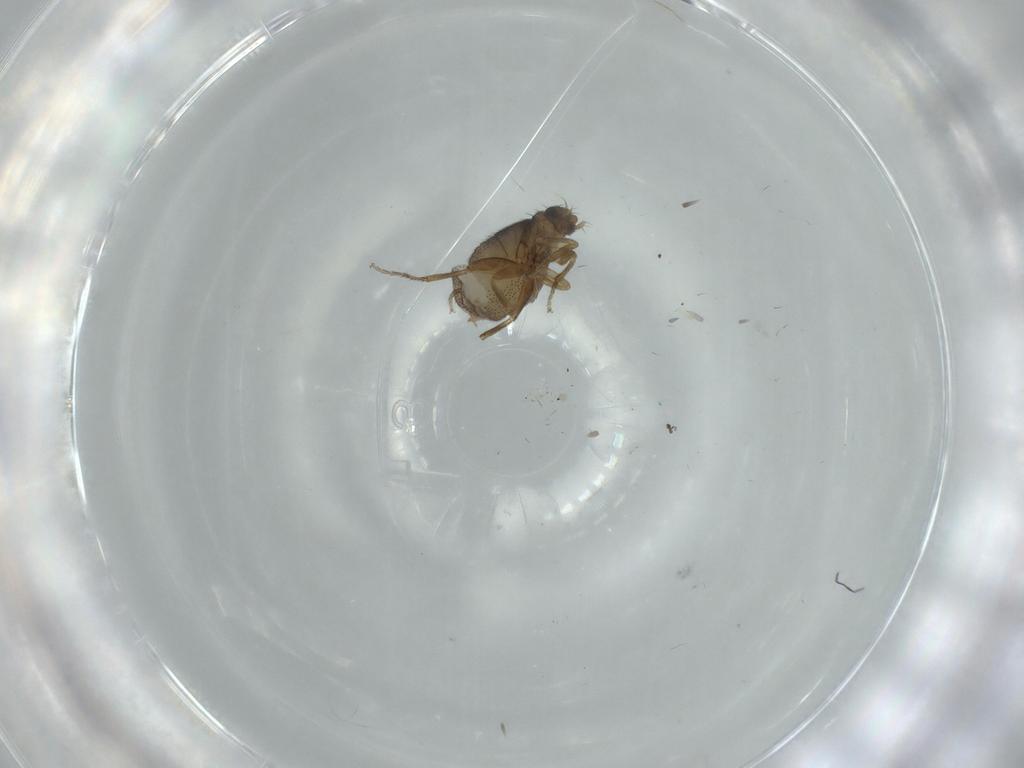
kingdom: Animalia
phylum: Arthropoda
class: Insecta
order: Diptera
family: Phoridae
